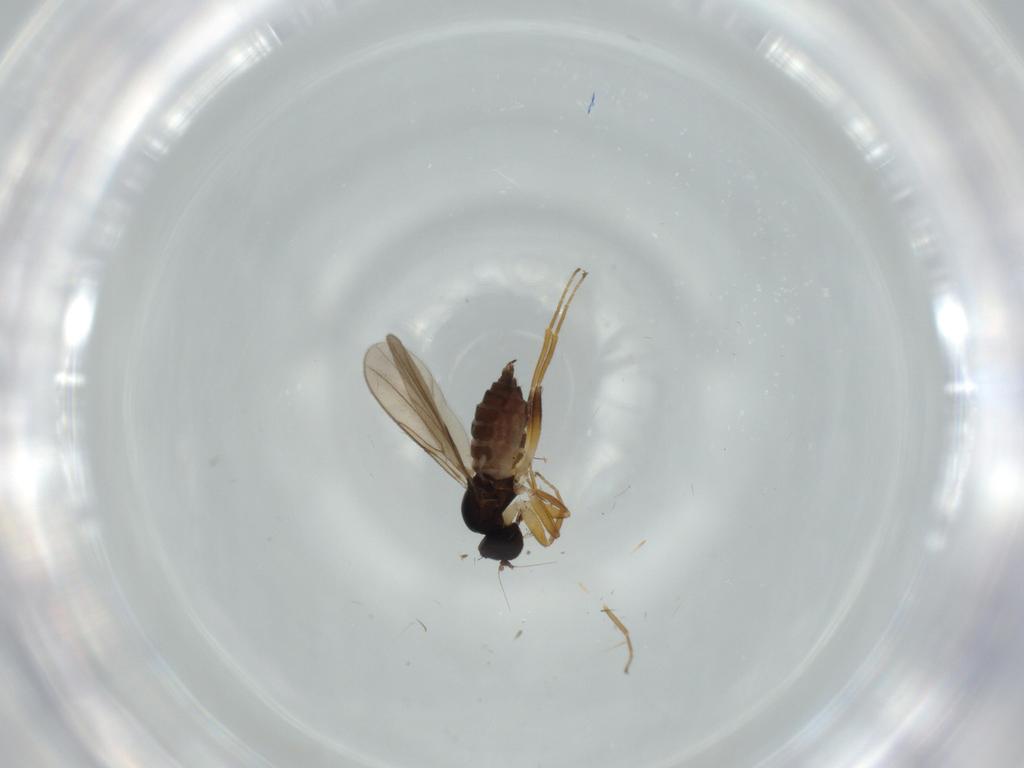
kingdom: Animalia
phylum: Arthropoda
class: Insecta
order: Diptera
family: Hybotidae
